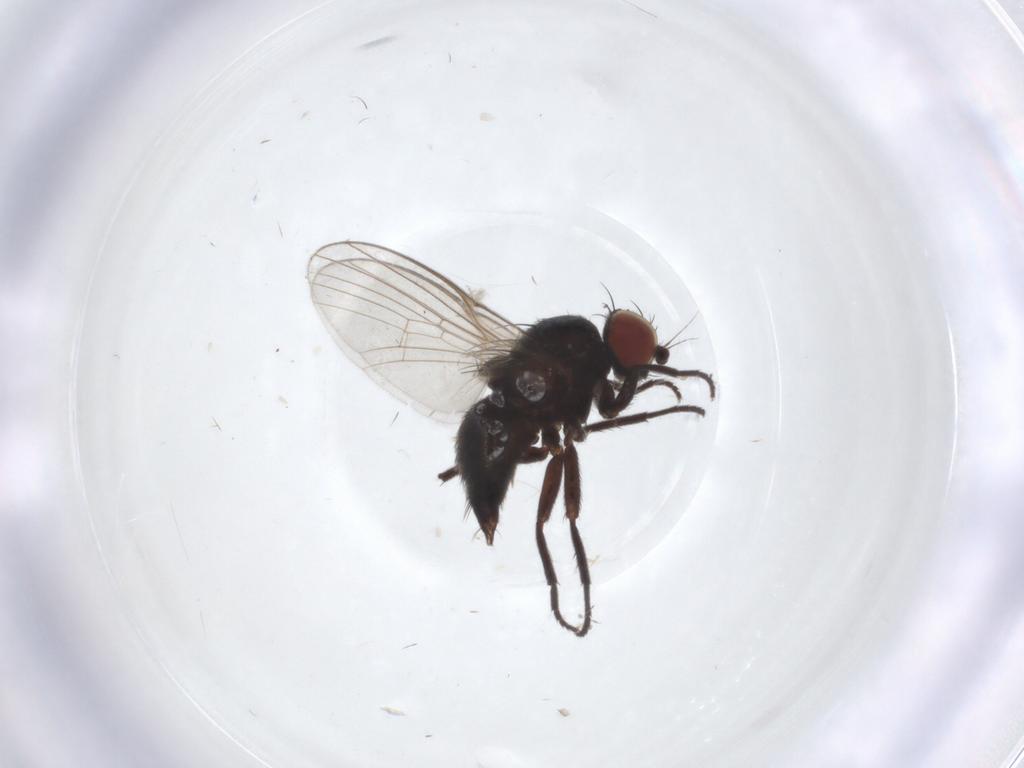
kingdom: Animalia
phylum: Arthropoda
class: Insecta
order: Diptera
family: Agromyzidae
